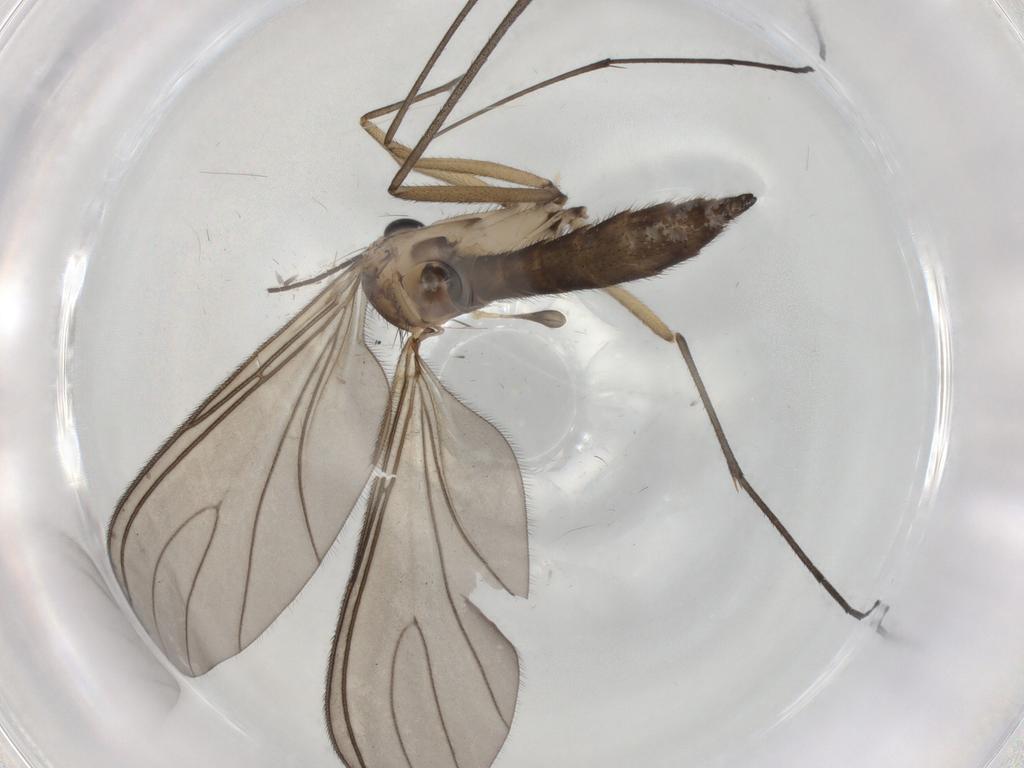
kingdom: Animalia
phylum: Arthropoda
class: Insecta
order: Diptera
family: Sciaridae
